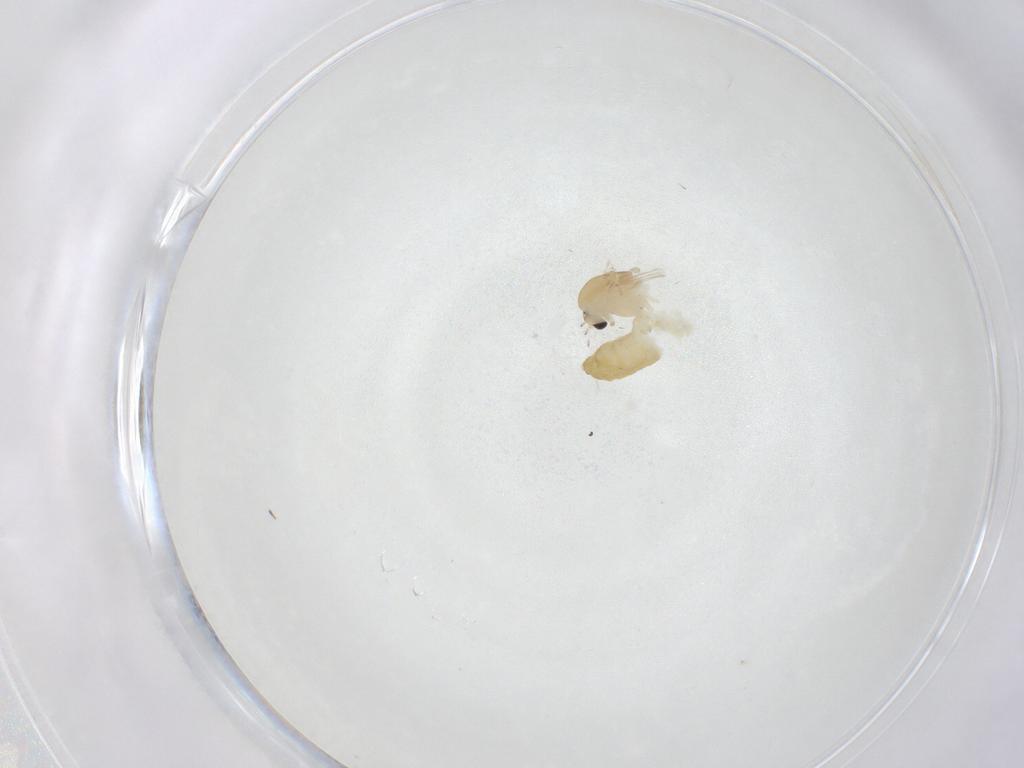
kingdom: Animalia
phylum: Arthropoda
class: Insecta
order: Diptera
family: Chironomidae
